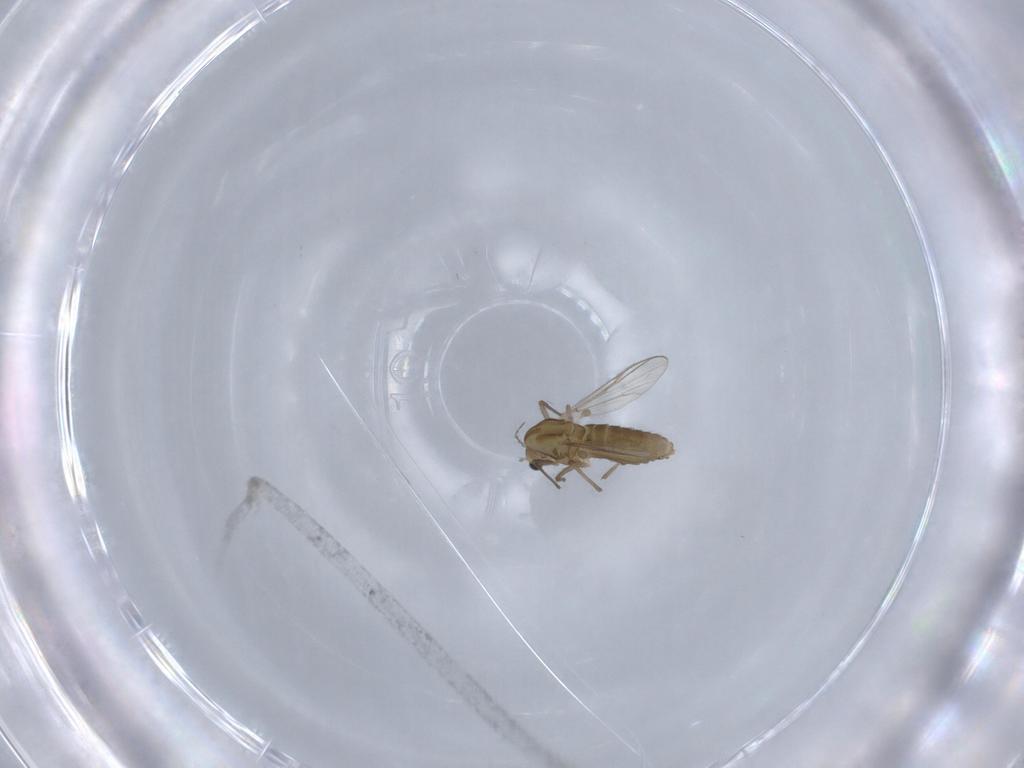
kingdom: Animalia
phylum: Arthropoda
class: Insecta
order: Diptera
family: Chironomidae
